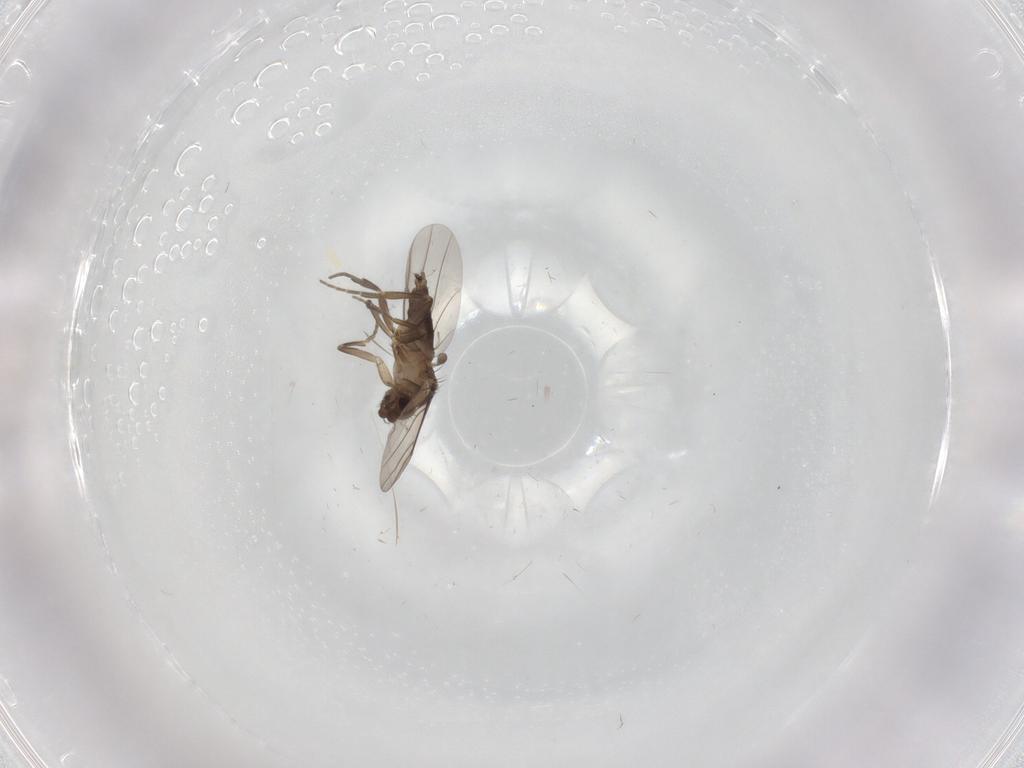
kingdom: Animalia
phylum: Arthropoda
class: Insecta
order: Diptera
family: Phoridae
